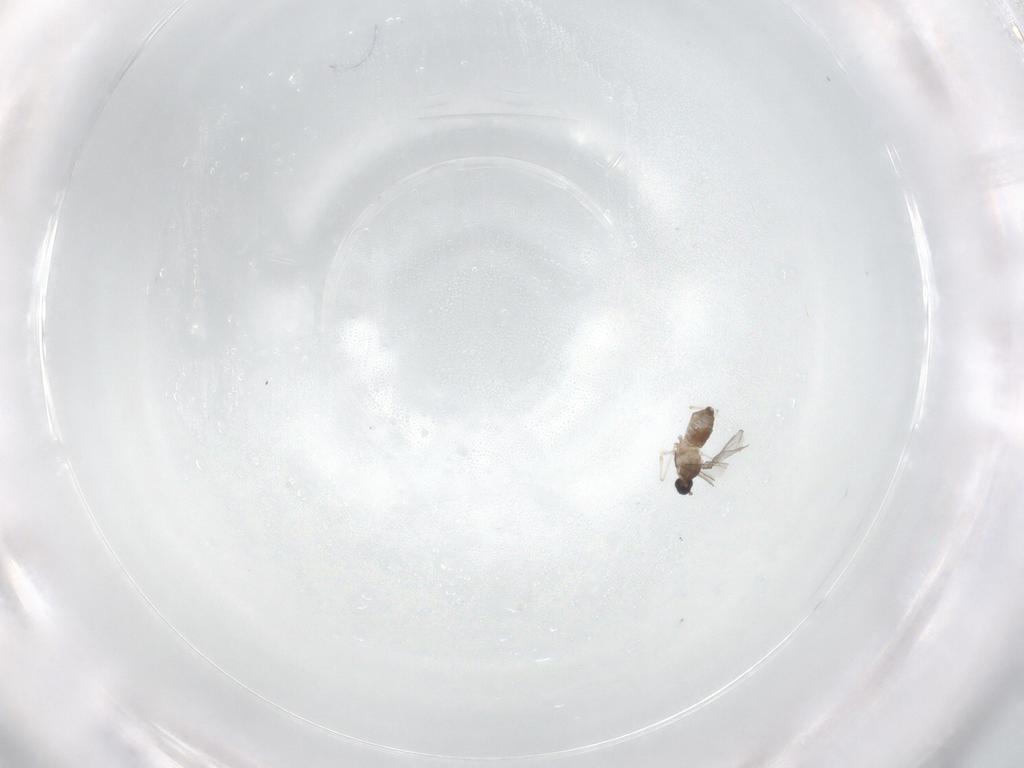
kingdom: Animalia
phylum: Arthropoda
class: Insecta
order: Diptera
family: Cecidomyiidae
